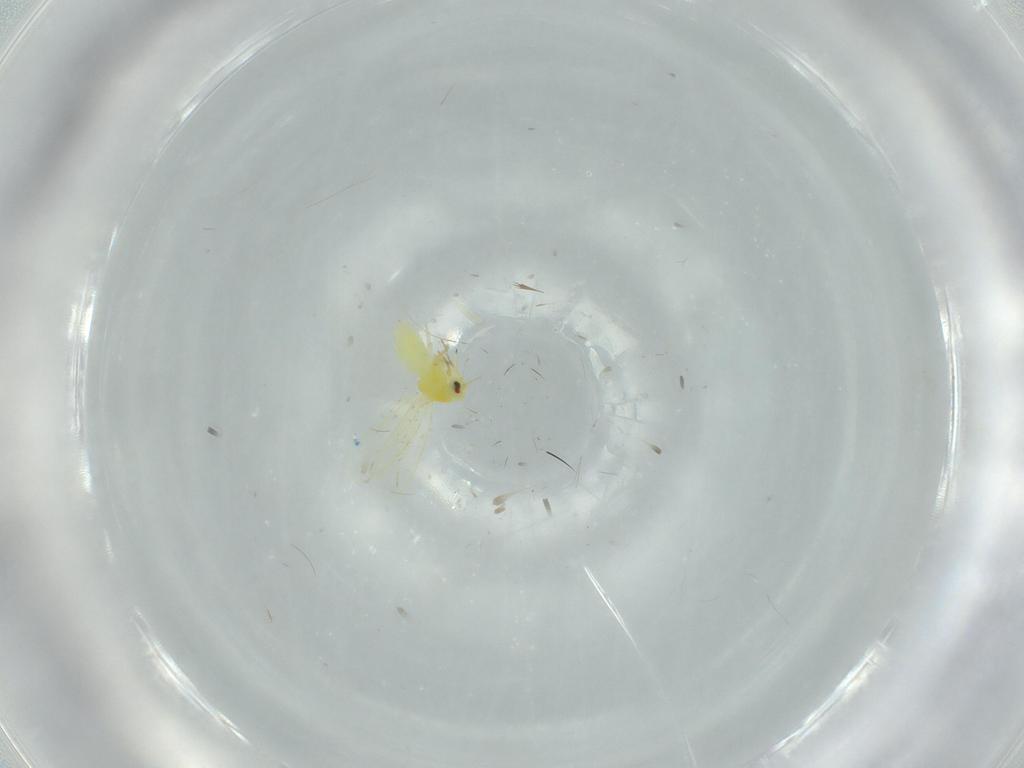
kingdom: Animalia
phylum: Arthropoda
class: Insecta
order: Hemiptera
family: Aleyrodidae
